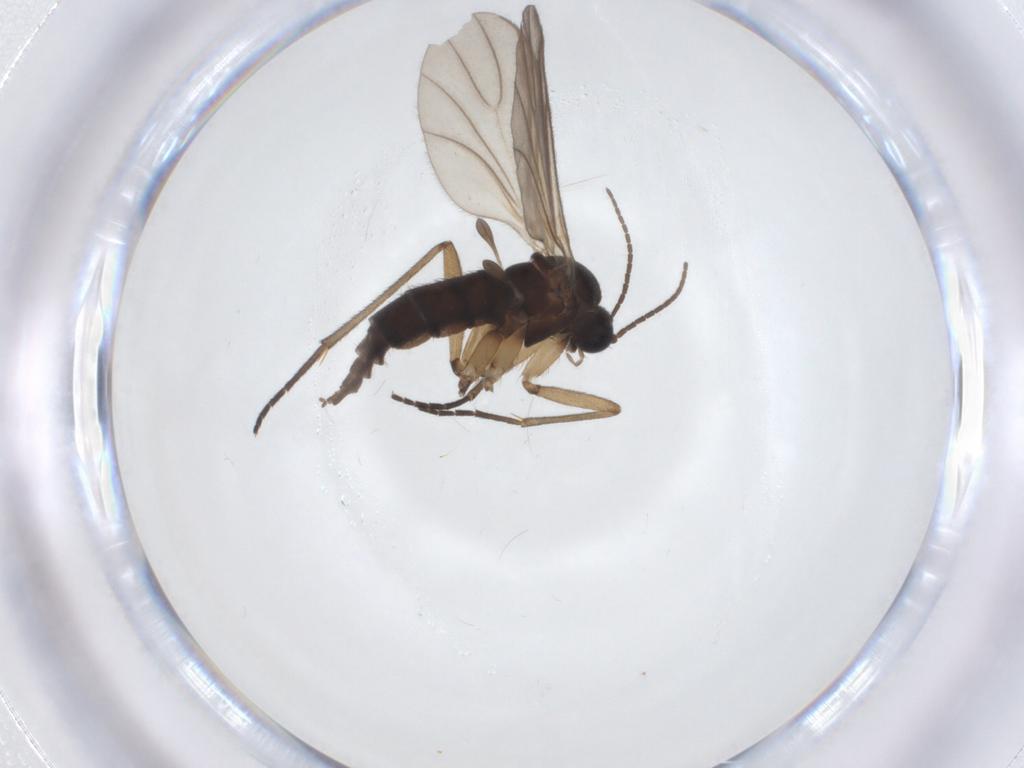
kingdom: Animalia
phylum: Arthropoda
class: Insecta
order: Diptera
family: Sciaridae
